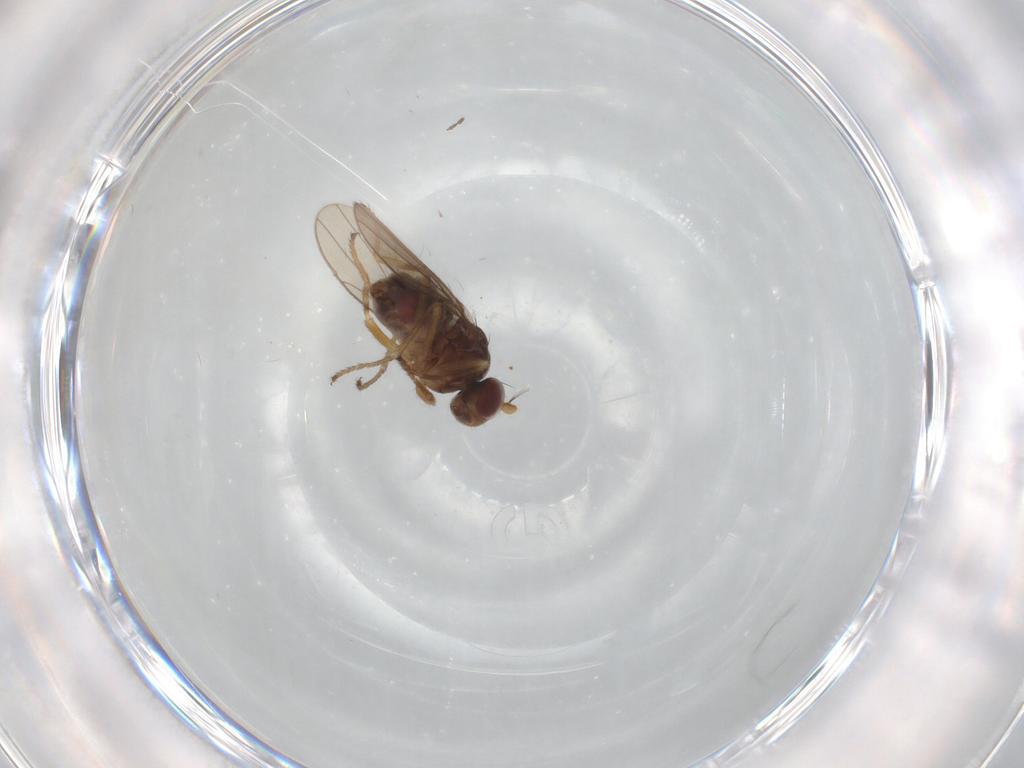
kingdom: Animalia
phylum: Arthropoda
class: Insecta
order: Diptera
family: Ephydridae
